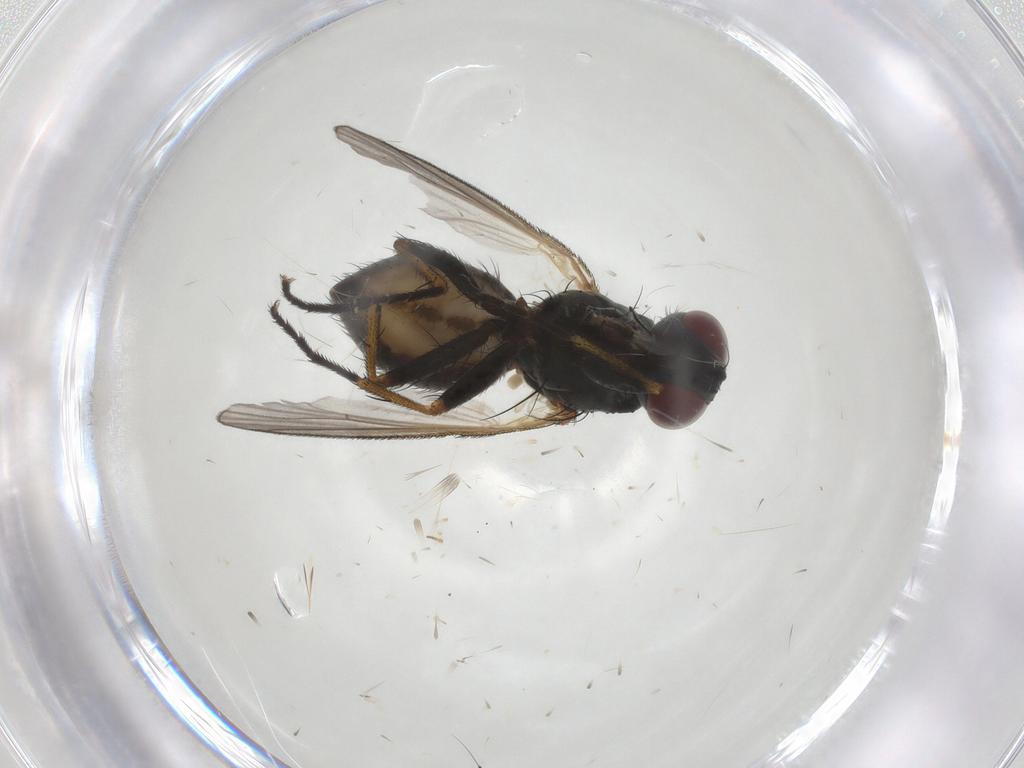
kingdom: Animalia
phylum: Arthropoda
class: Insecta
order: Diptera
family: Muscidae
